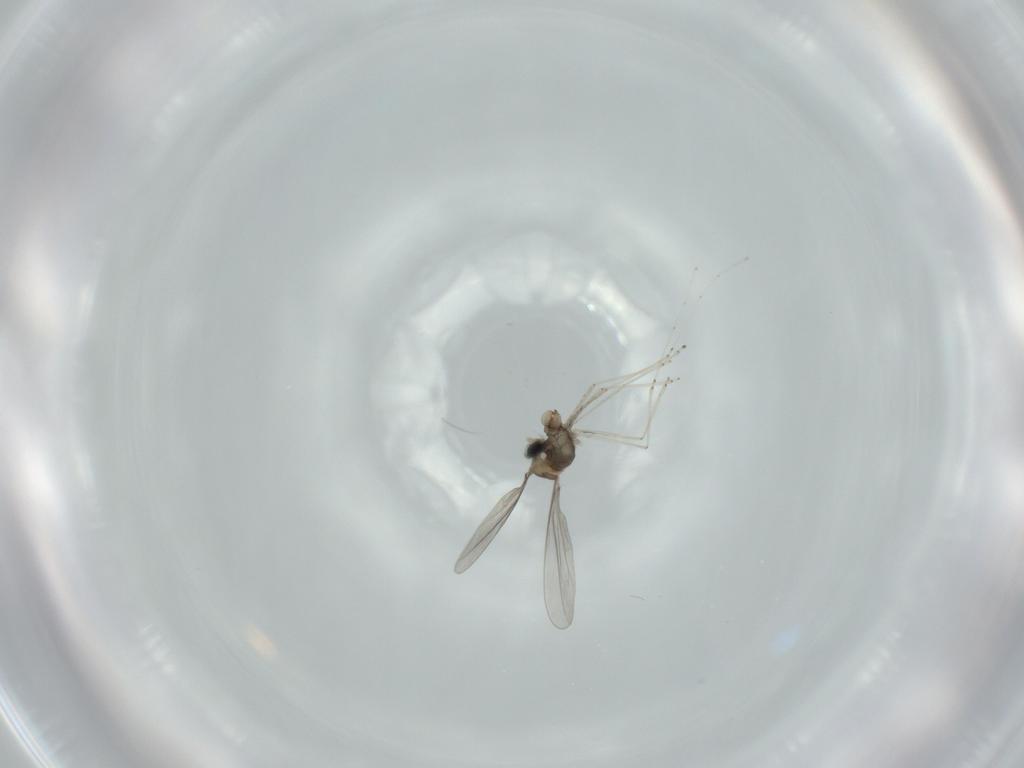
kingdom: Animalia
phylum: Arthropoda
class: Insecta
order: Diptera
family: Cecidomyiidae
